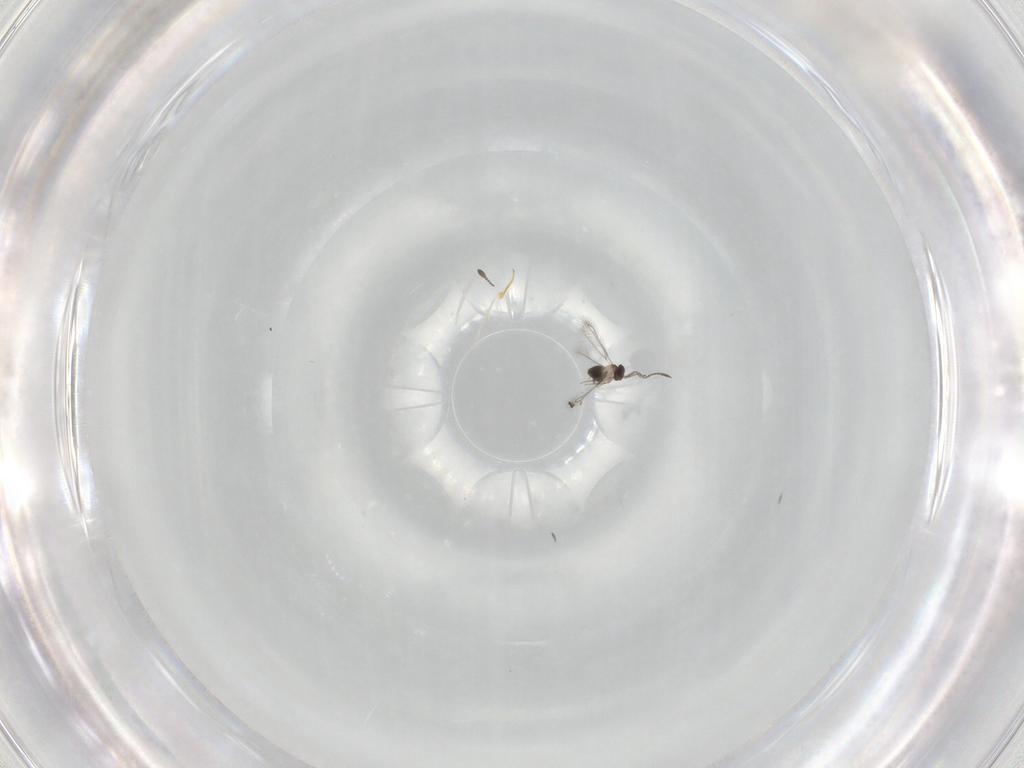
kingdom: Animalia
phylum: Arthropoda
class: Insecta
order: Hymenoptera
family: Scelionidae
